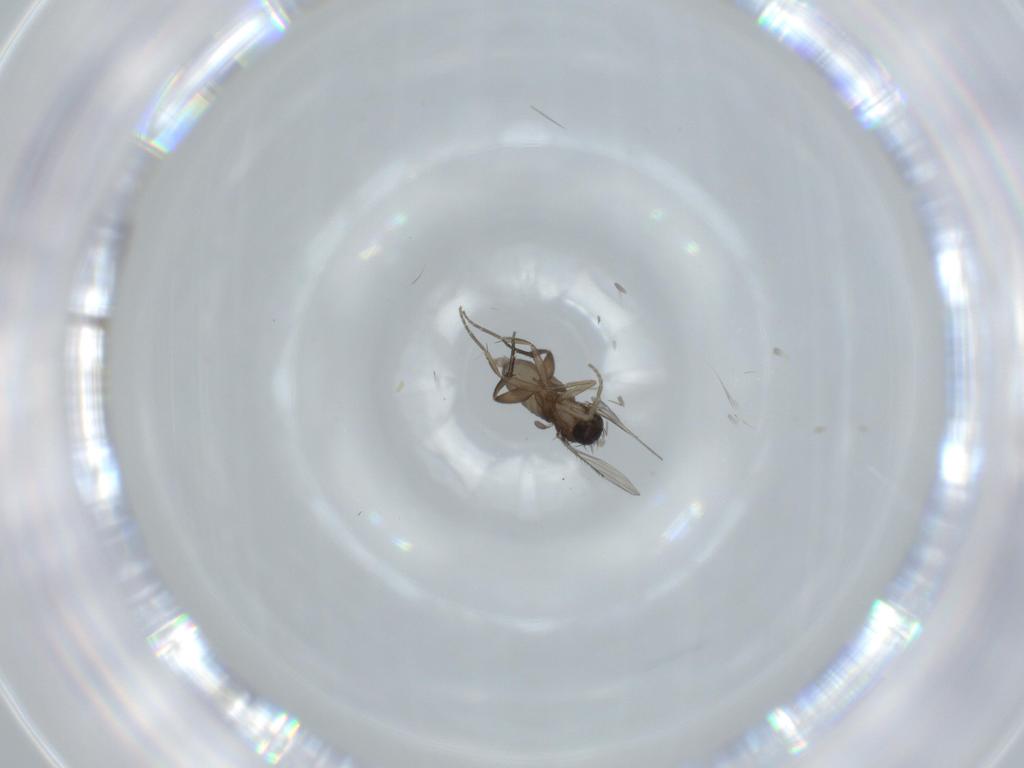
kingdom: Animalia
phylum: Arthropoda
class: Insecta
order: Diptera
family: Phoridae
